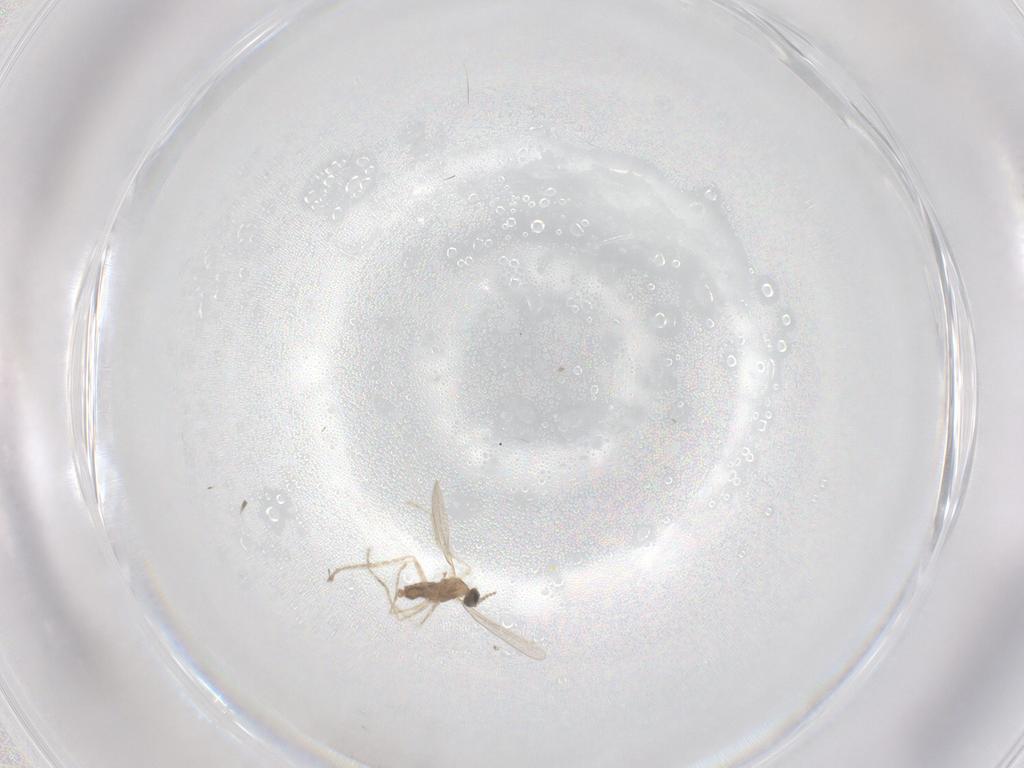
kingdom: Animalia
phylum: Arthropoda
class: Insecta
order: Diptera
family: Cecidomyiidae
